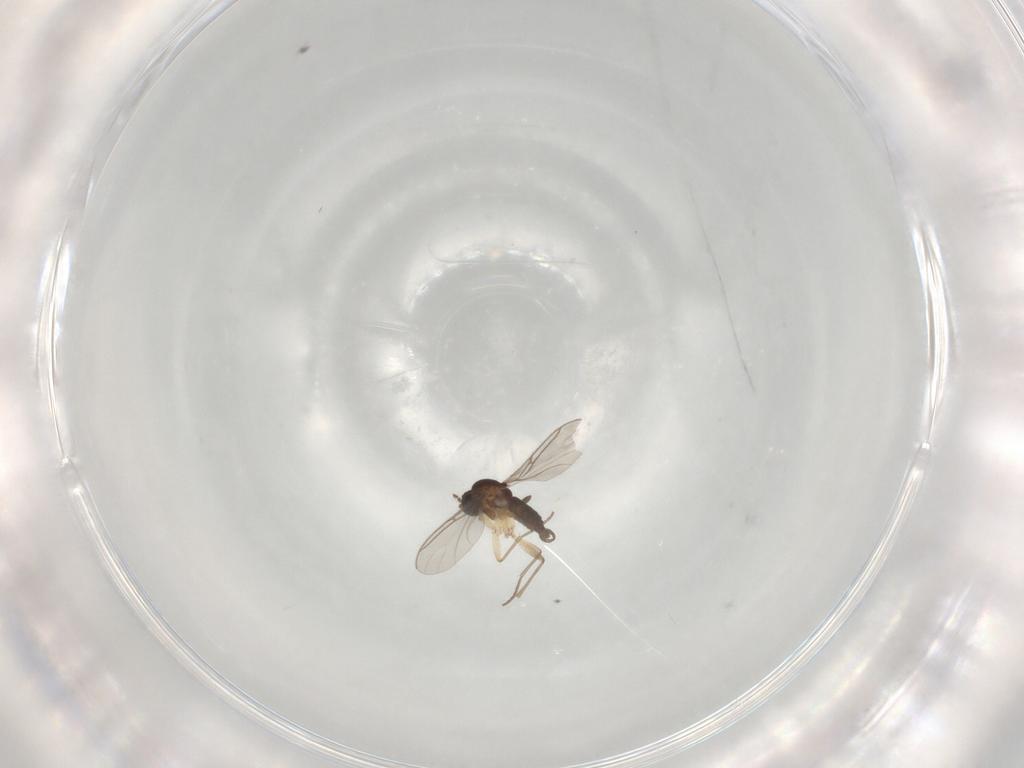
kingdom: Animalia
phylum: Arthropoda
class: Insecta
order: Diptera
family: Sciaridae
